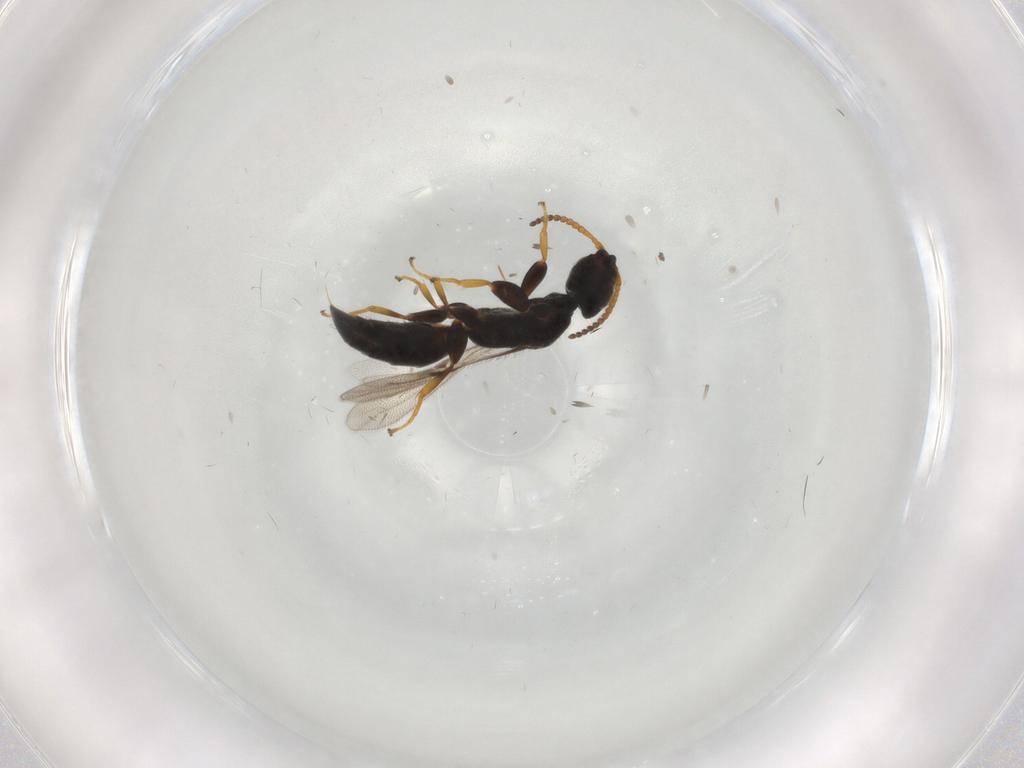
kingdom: Animalia
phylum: Arthropoda
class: Insecta
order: Hymenoptera
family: Bethylidae
